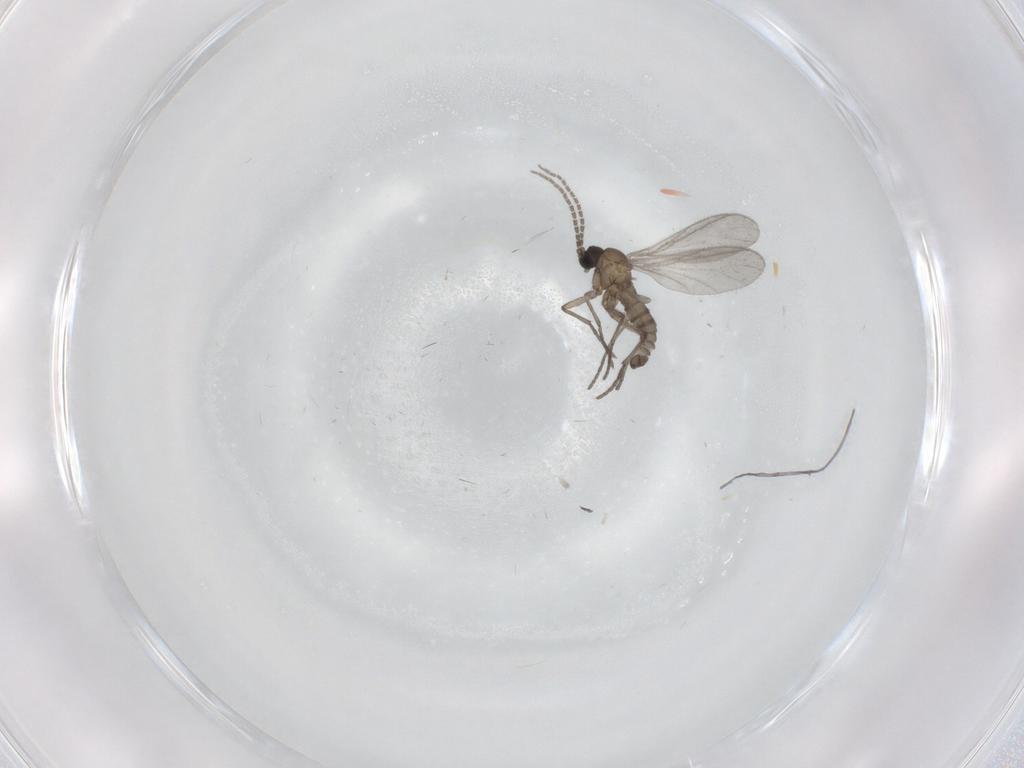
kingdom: Animalia
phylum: Arthropoda
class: Insecta
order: Diptera
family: Sciaridae
